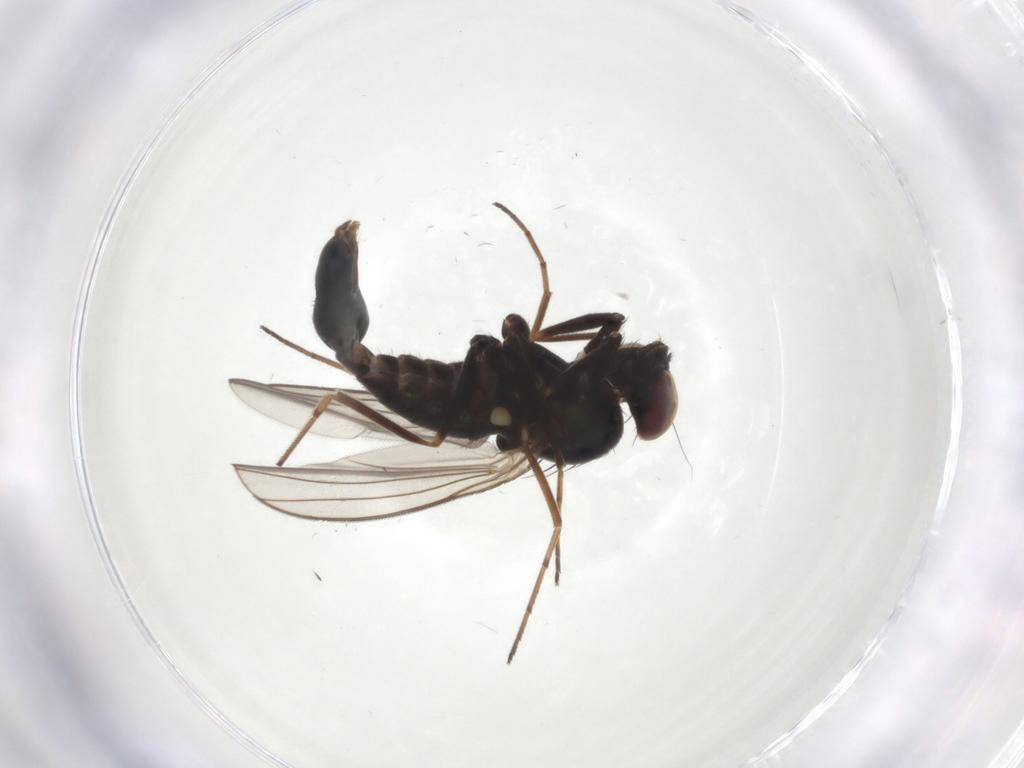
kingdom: Animalia
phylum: Arthropoda
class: Insecta
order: Diptera
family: Dolichopodidae
